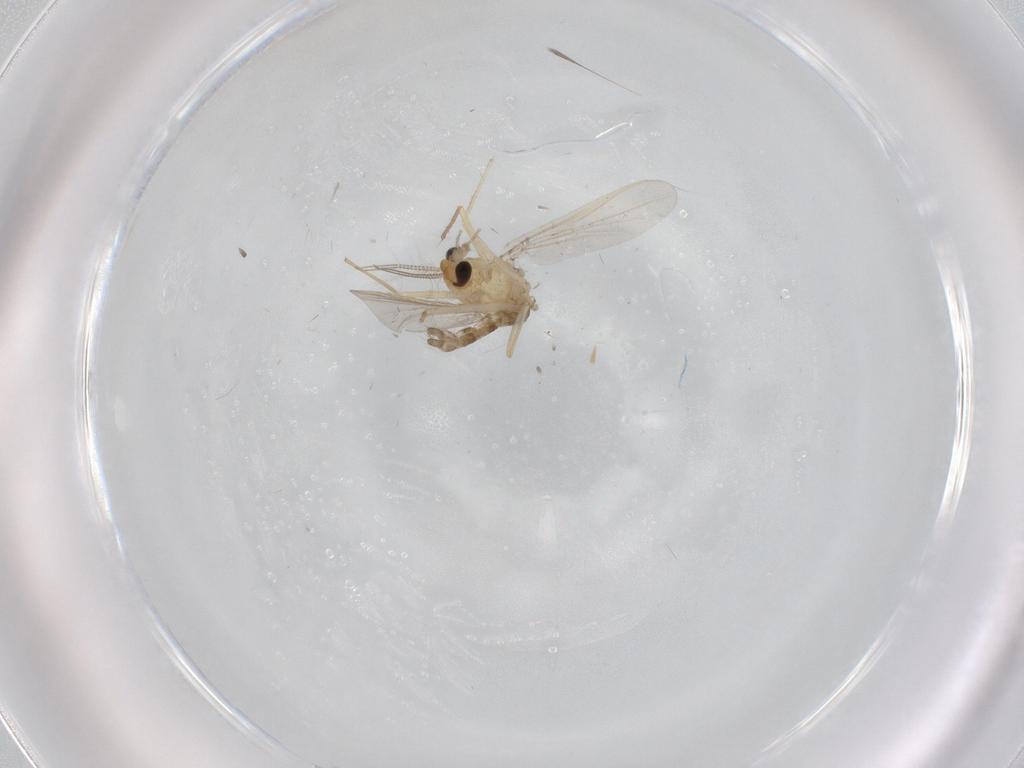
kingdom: Animalia
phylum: Arthropoda
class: Insecta
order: Diptera
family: Chironomidae
